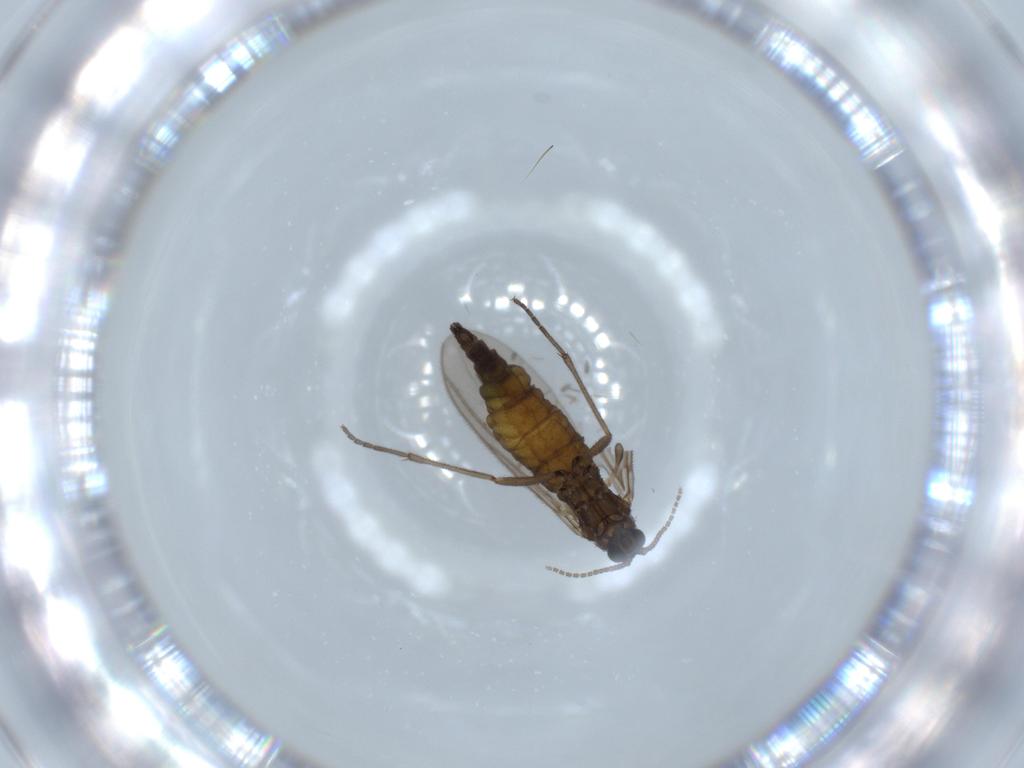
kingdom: Animalia
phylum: Arthropoda
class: Insecta
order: Diptera
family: Sciaridae
